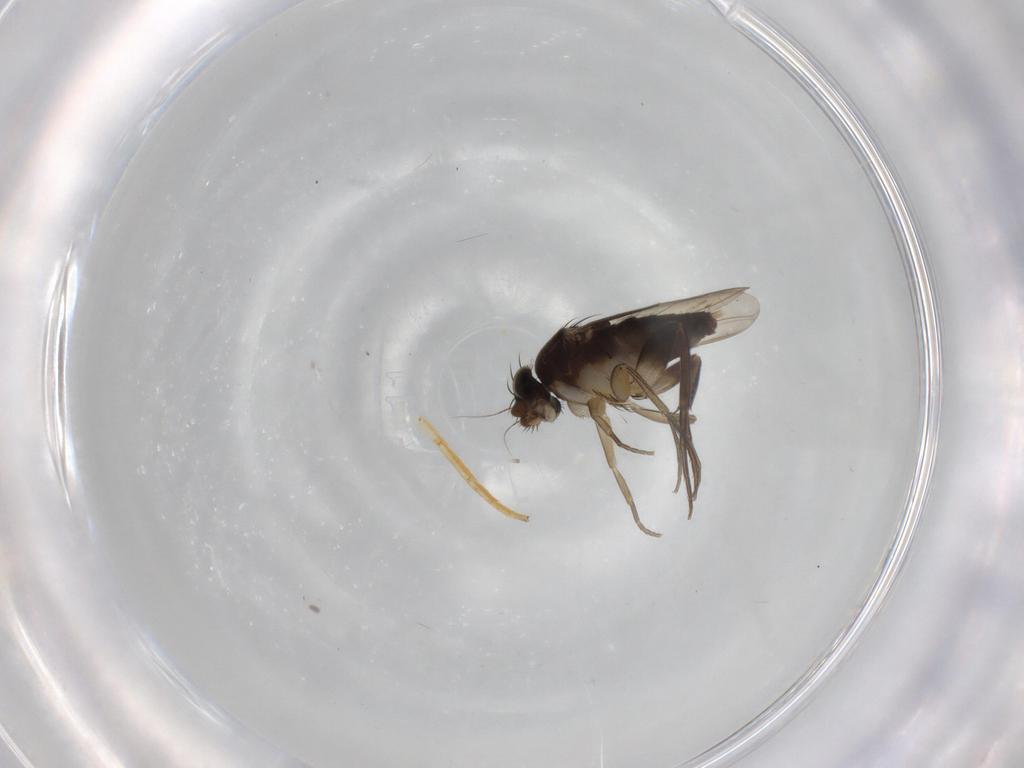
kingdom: Animalia
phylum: Arthropoda
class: Insecta
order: Diptera
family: Phoridae
